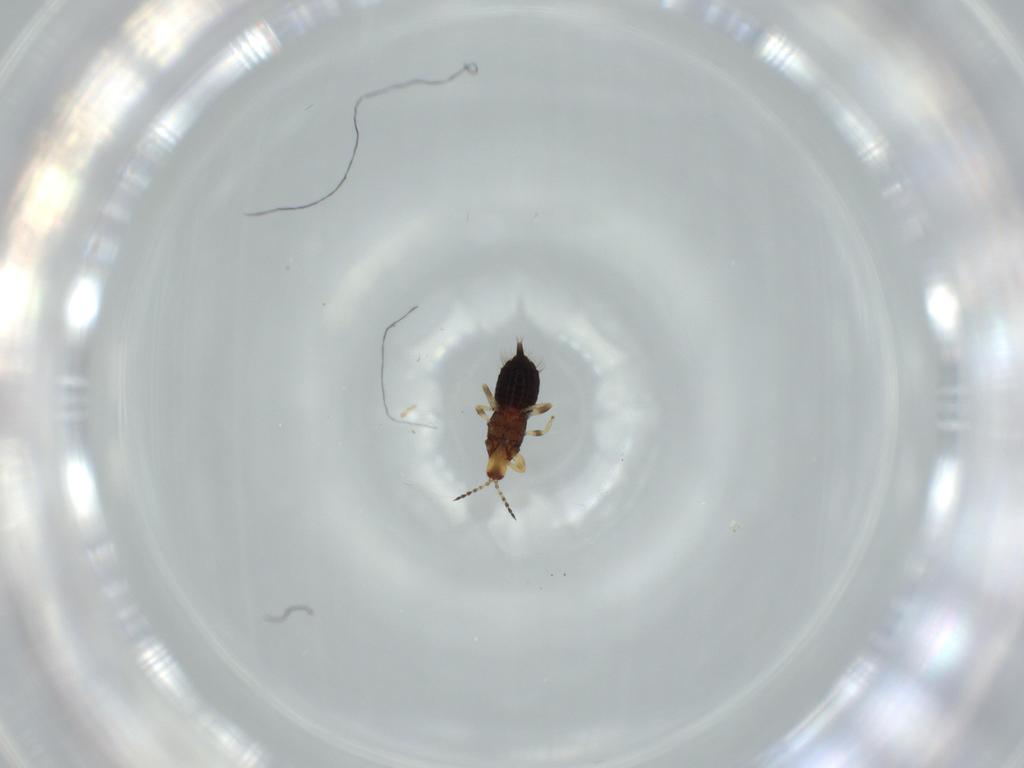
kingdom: Animalia
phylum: Arthropoda
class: Insecta
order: Thysanoptera
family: Phlaeothripidae
